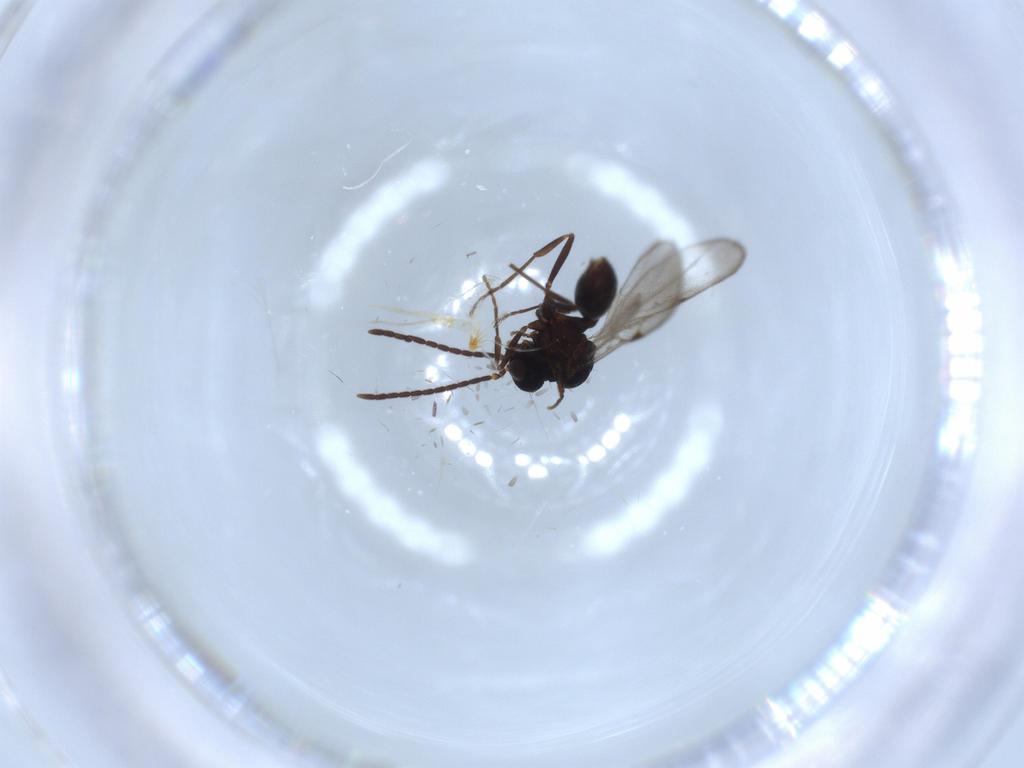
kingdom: Animalia
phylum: Arthropoda
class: Insecta
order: Hymenoptera
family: Formicidae
